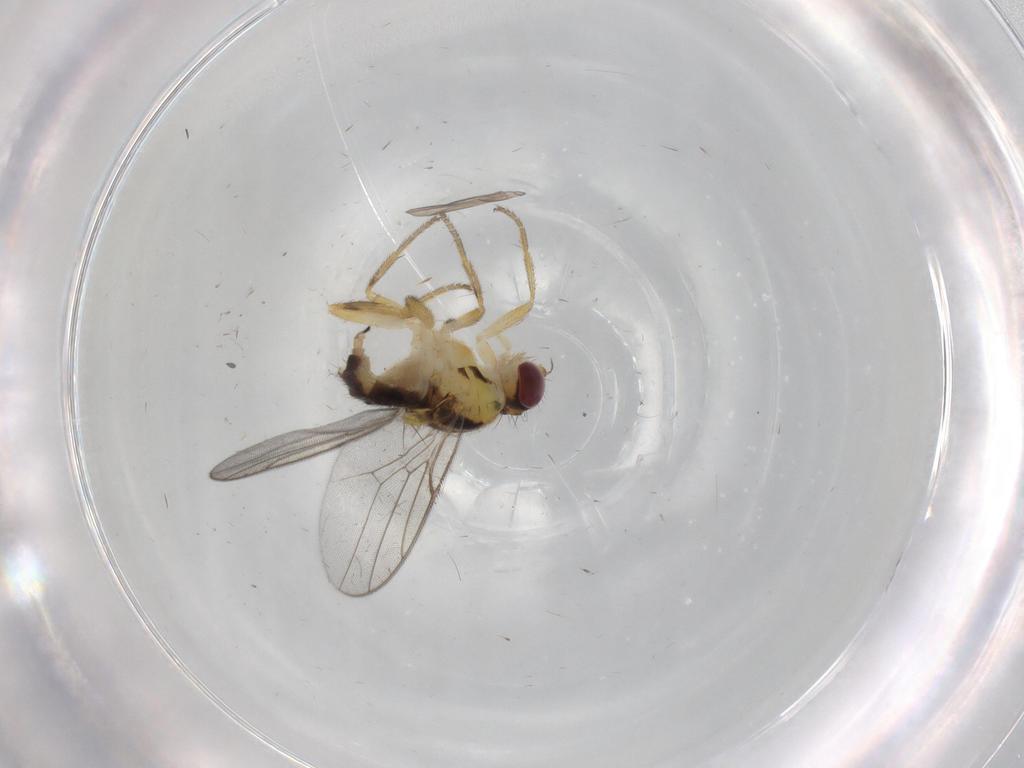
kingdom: Animalia
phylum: Arthropoda
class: Insecta
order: Diptera
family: Chloropidae
